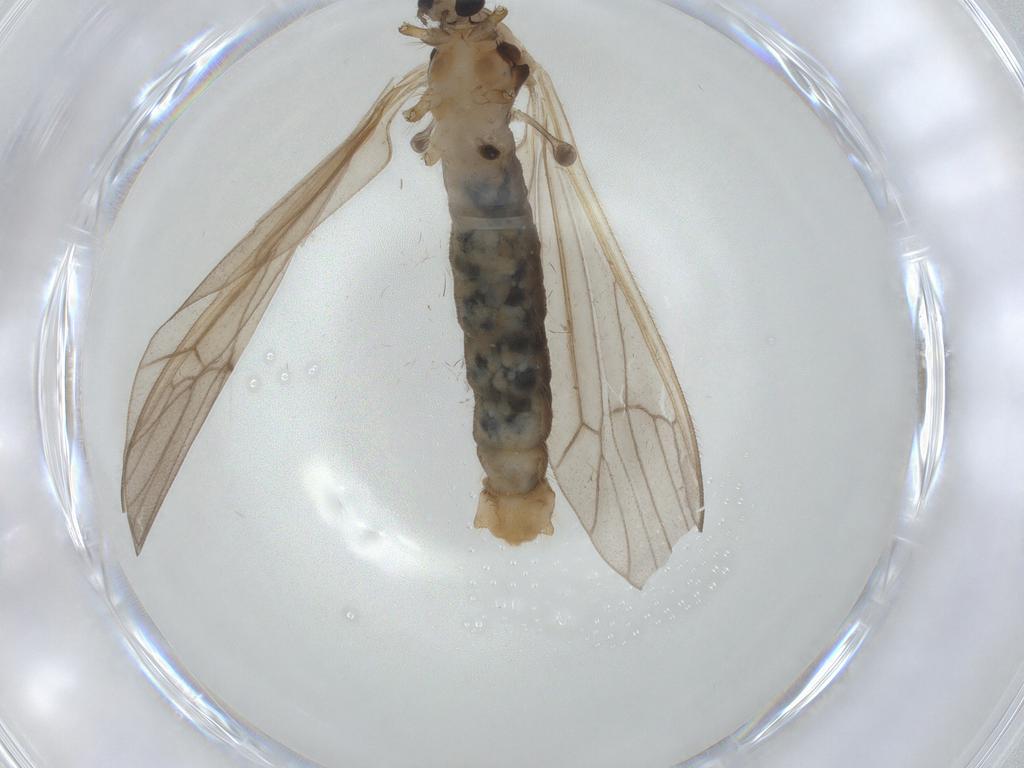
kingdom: Animalia
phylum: Arthropoda
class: Insecta
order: Diptera
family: Limoniidae
